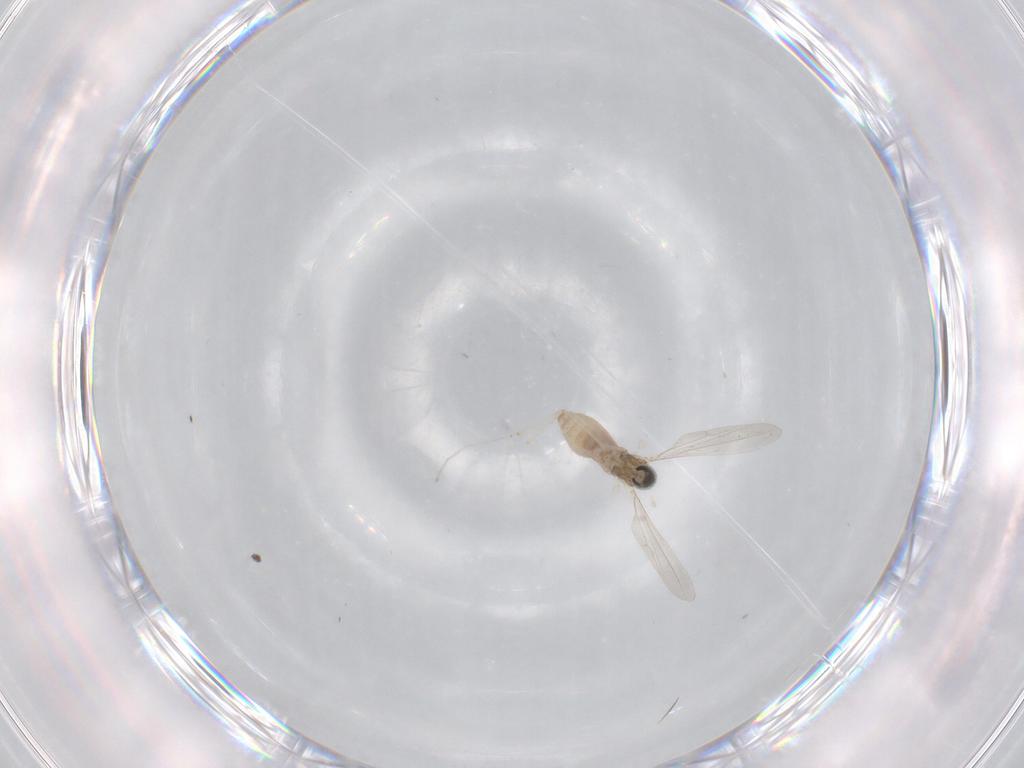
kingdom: Animalia
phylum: Arthropoda
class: Insecta
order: Diptera
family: Cecidomyiidae
